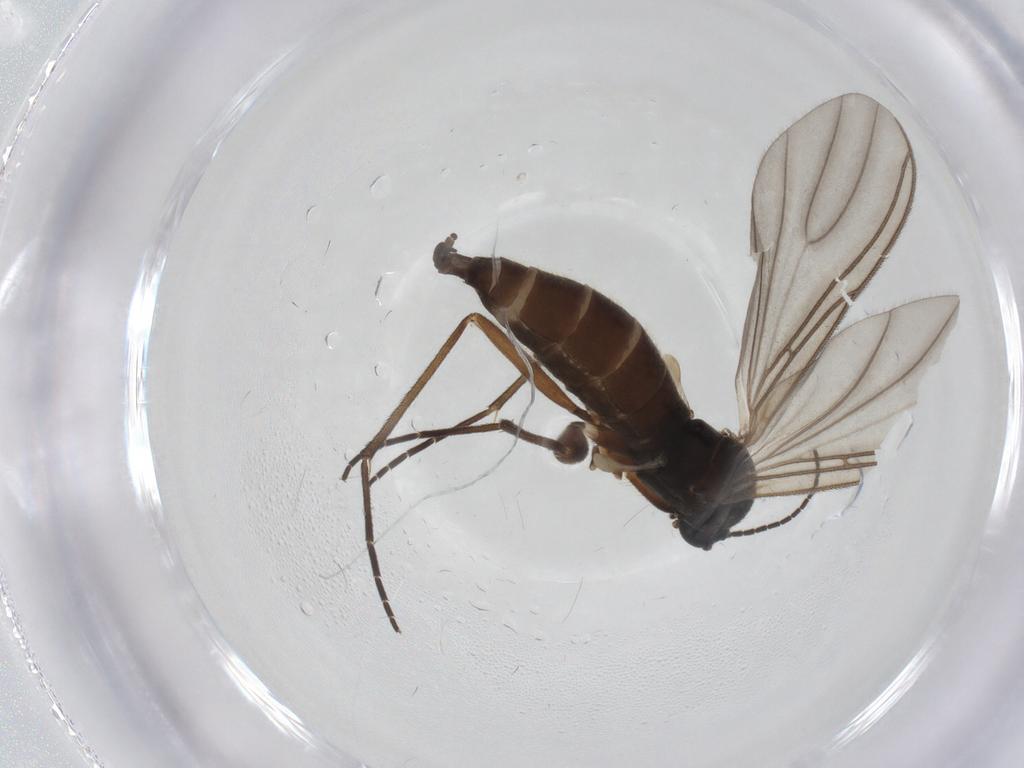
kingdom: Animalia
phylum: Arthropoda
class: Insecta
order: Diptera
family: Sciaridae
